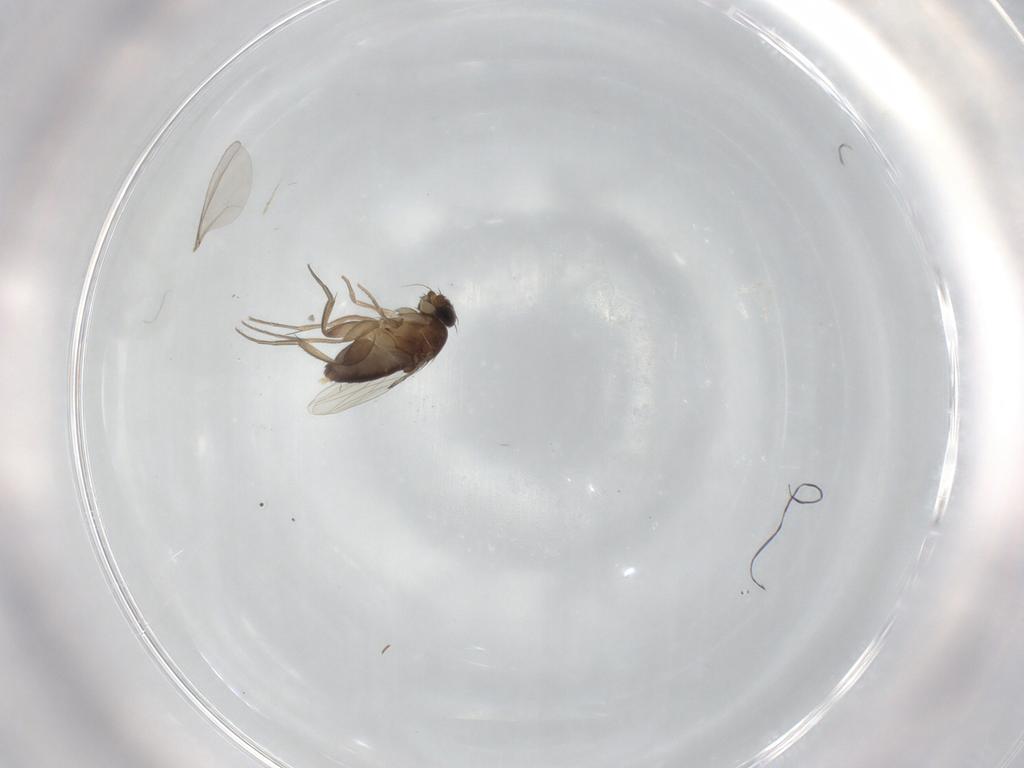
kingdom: Animalia
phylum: Arthropoda
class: Insecta
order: Diptera
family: Phoridae
